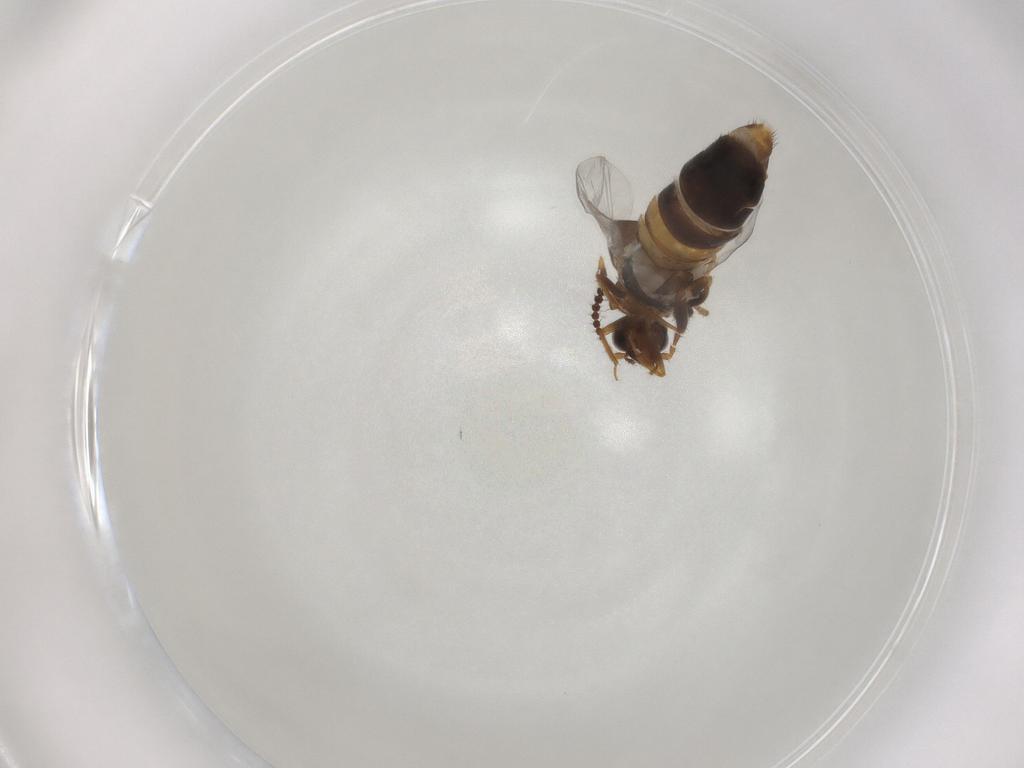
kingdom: Animalia
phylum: Arthropoda
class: Insecta
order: Coleoptera
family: Staphylinidae
